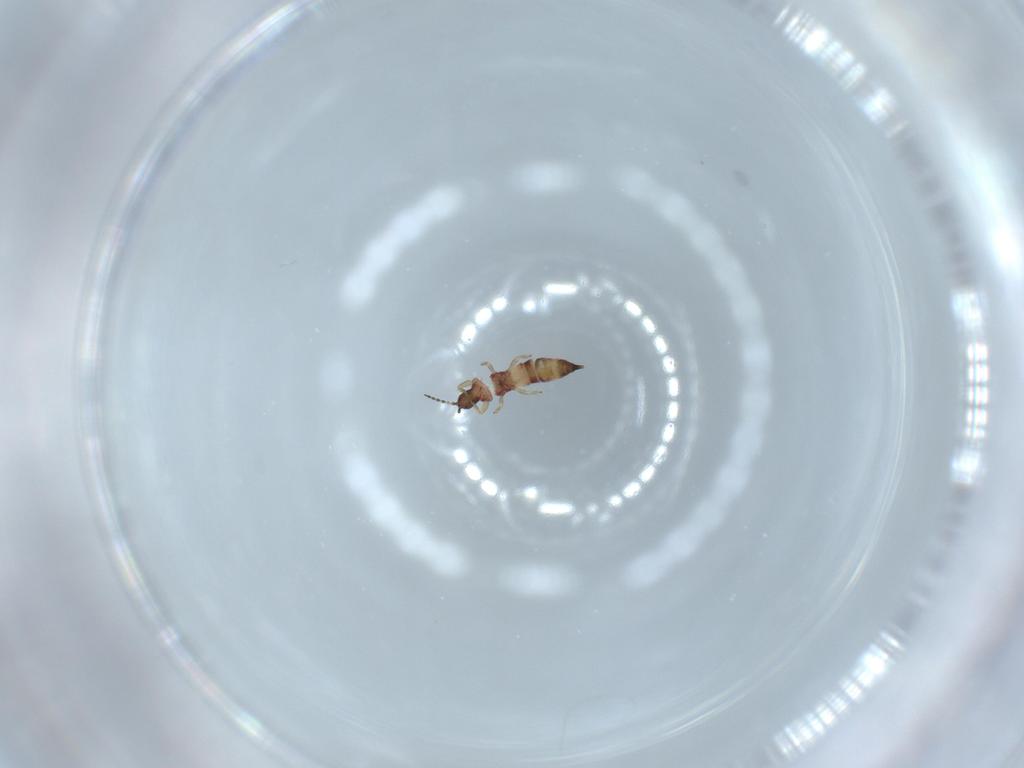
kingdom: Animalia
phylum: Arthropoda
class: Insecta
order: Thysanoptera
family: Phlaeothripidae
